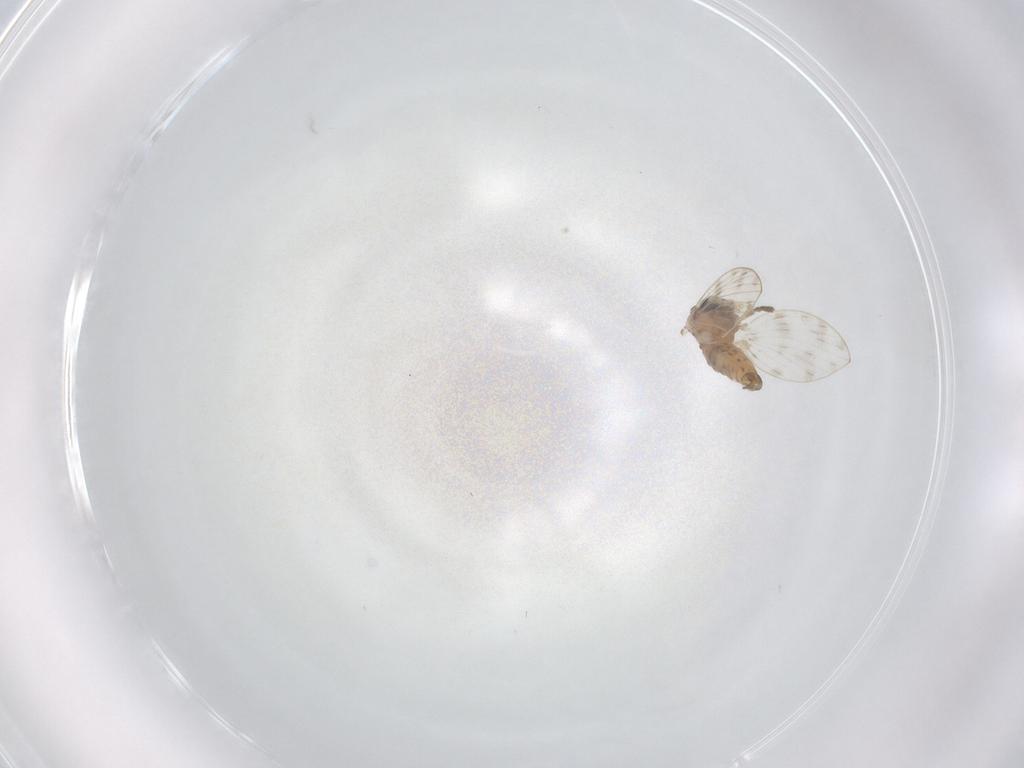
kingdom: Animalia
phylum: Arthropoda
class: Insecta
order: Diptera
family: Psychodidae
